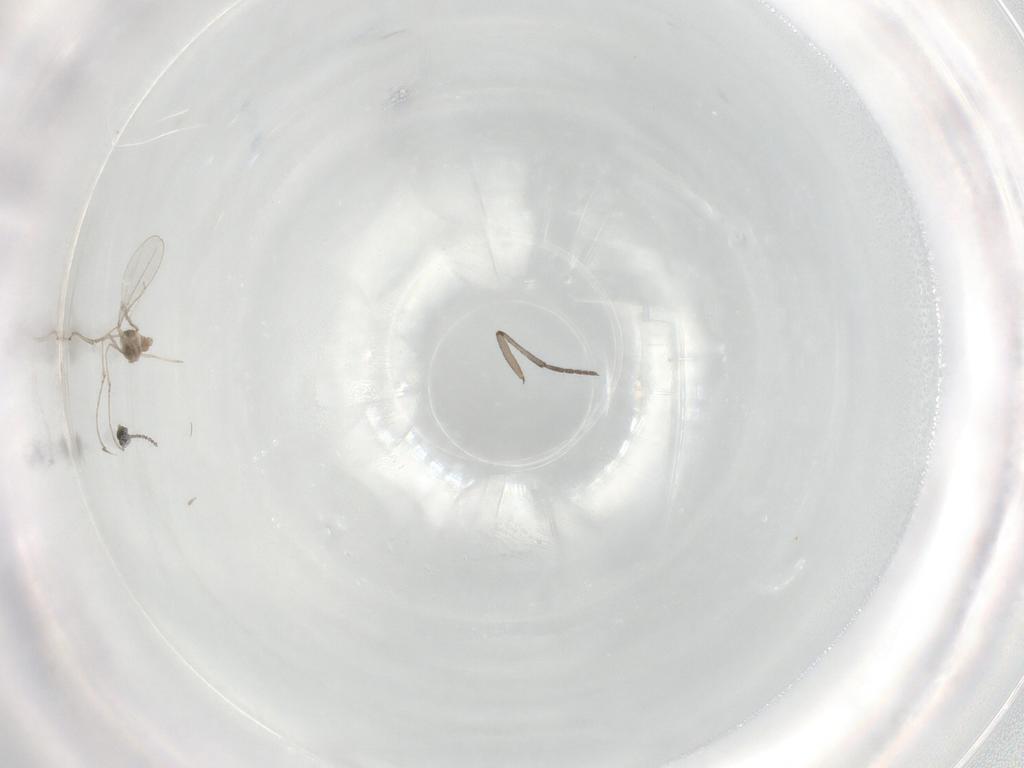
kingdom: Animalia
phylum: Arthropoda
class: Insecta
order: Diptera
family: Cecidomyiidae
